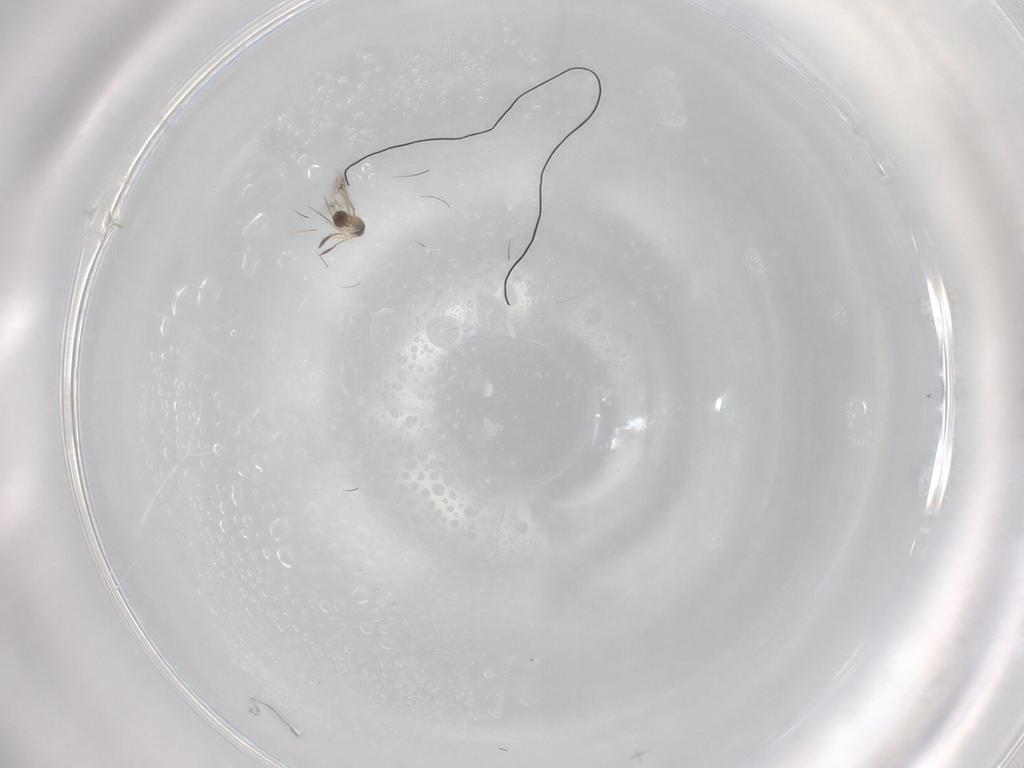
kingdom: Animalia
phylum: Arthropoda
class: Insecta
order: Hymenoptera
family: Mymaridae
